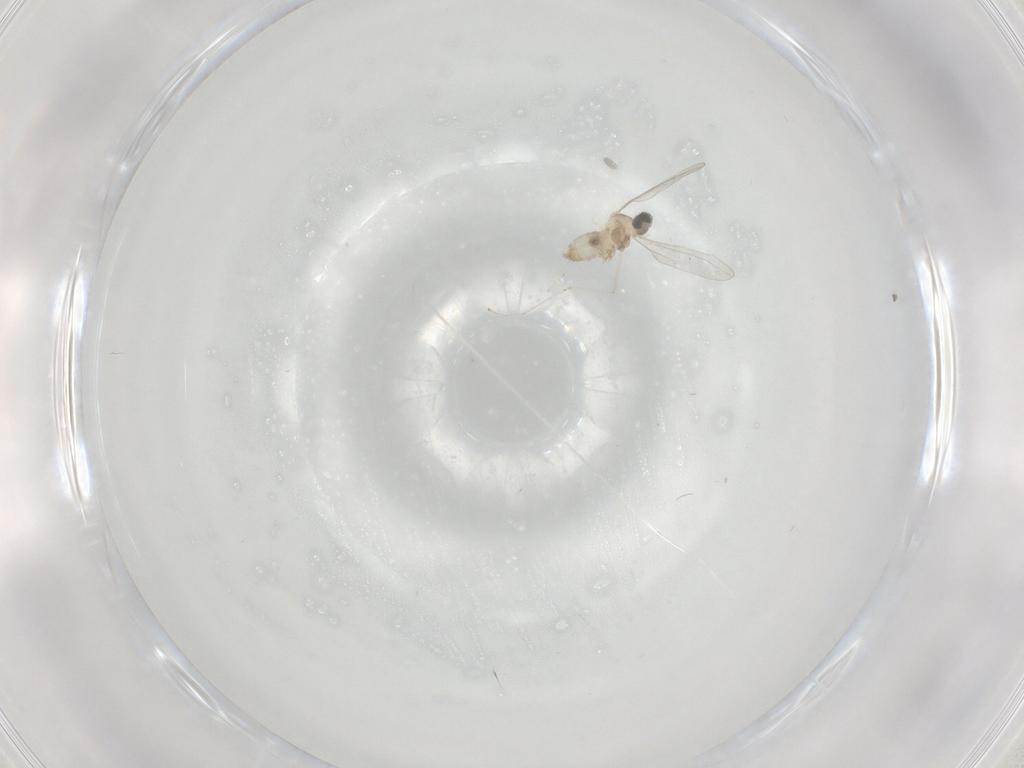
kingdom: Animalia
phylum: Arthropoda
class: Insecta
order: Diptera
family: Cecidomyiidae
